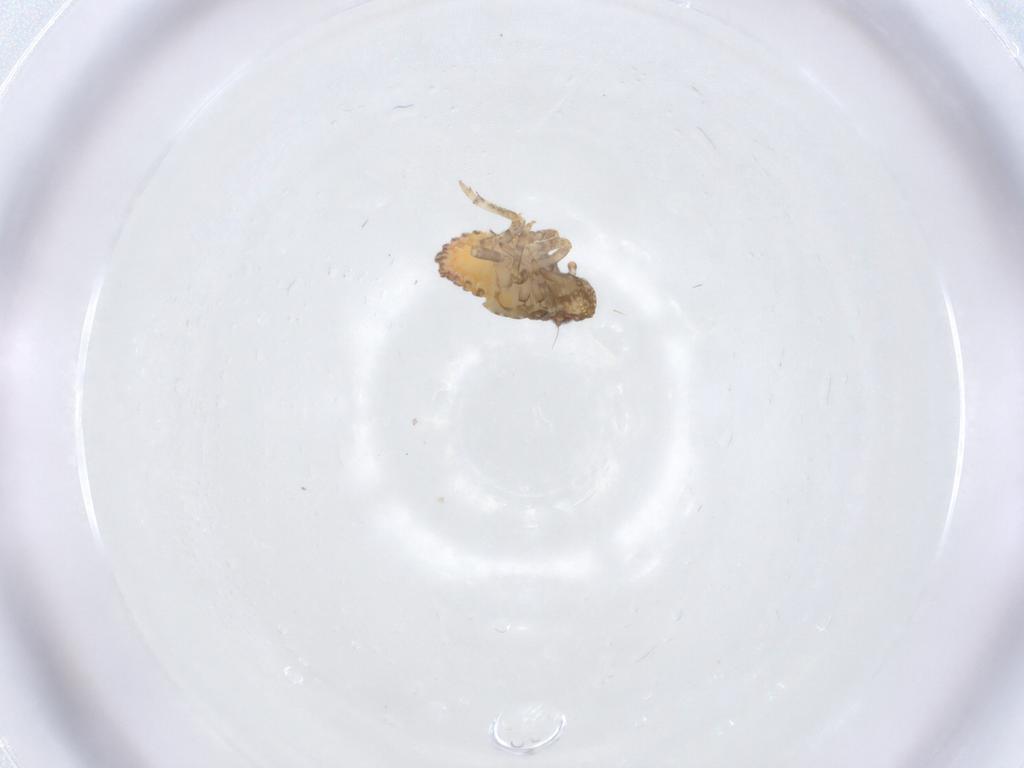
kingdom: Animalia
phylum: Arthropoda
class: Insecta
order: Hemiptera
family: Nogodinidae
